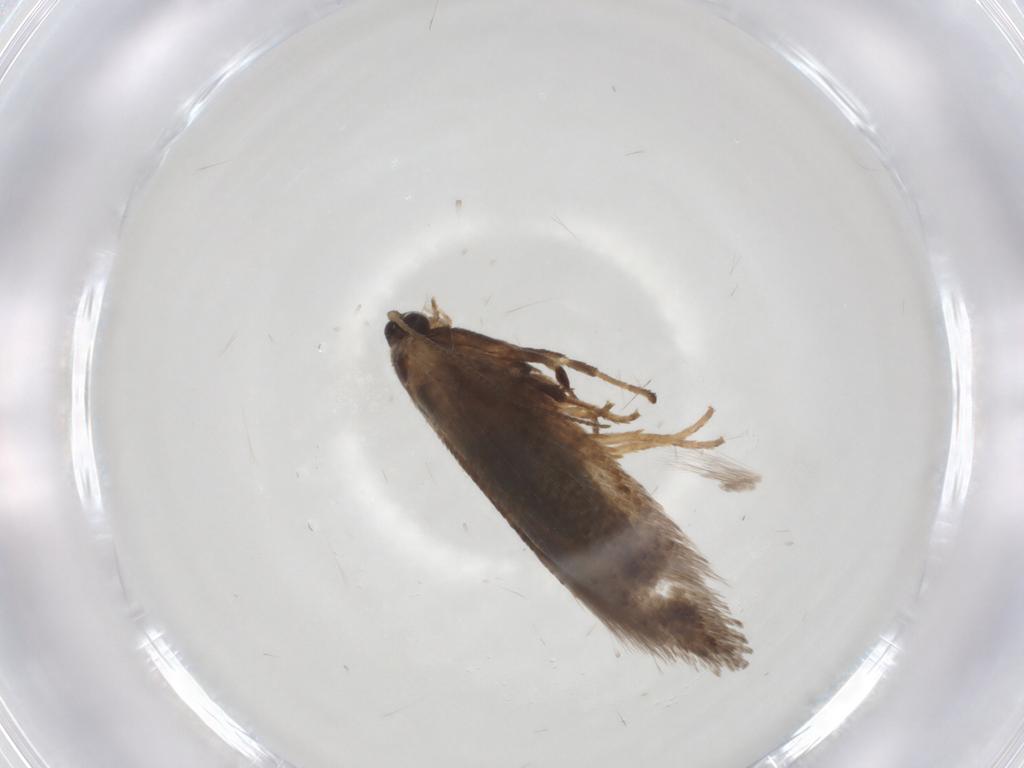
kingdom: Animalia
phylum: Arthropoda
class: Insecta
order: Lepidoptera
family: Nepticulidae
